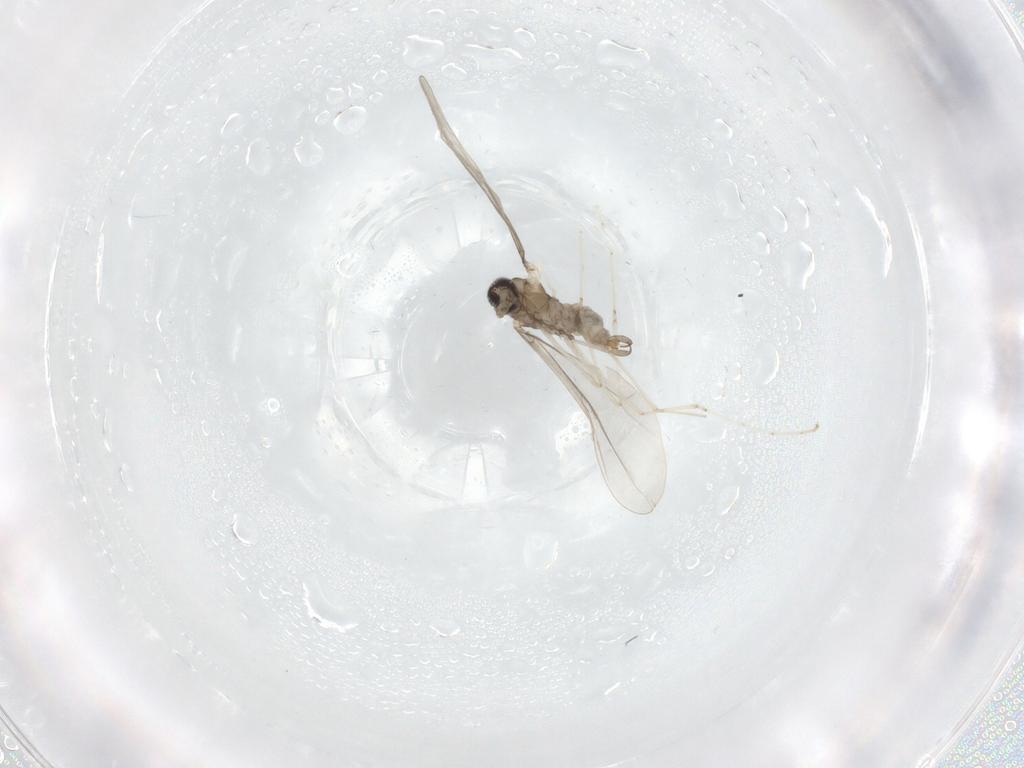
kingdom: Animalia
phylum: Arthropoda
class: Insecta
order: Diptera
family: Cecidomyiidae
